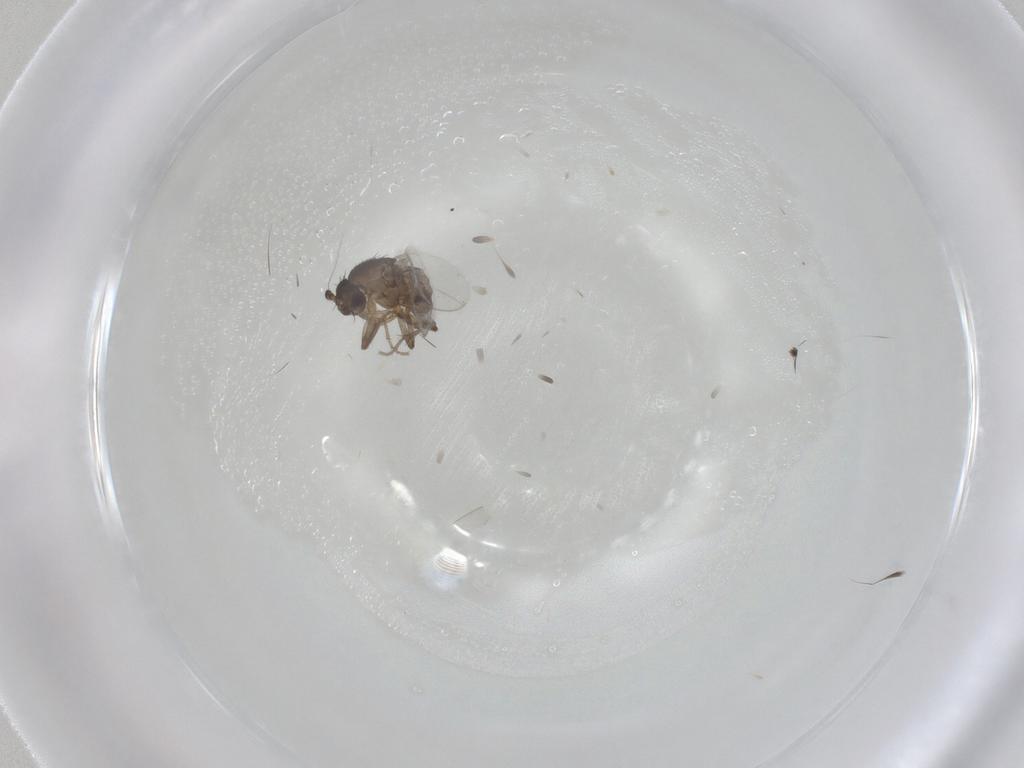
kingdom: Animalia
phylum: Arthropoda
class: Insecta
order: Diptera
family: Sphaeroceridae
